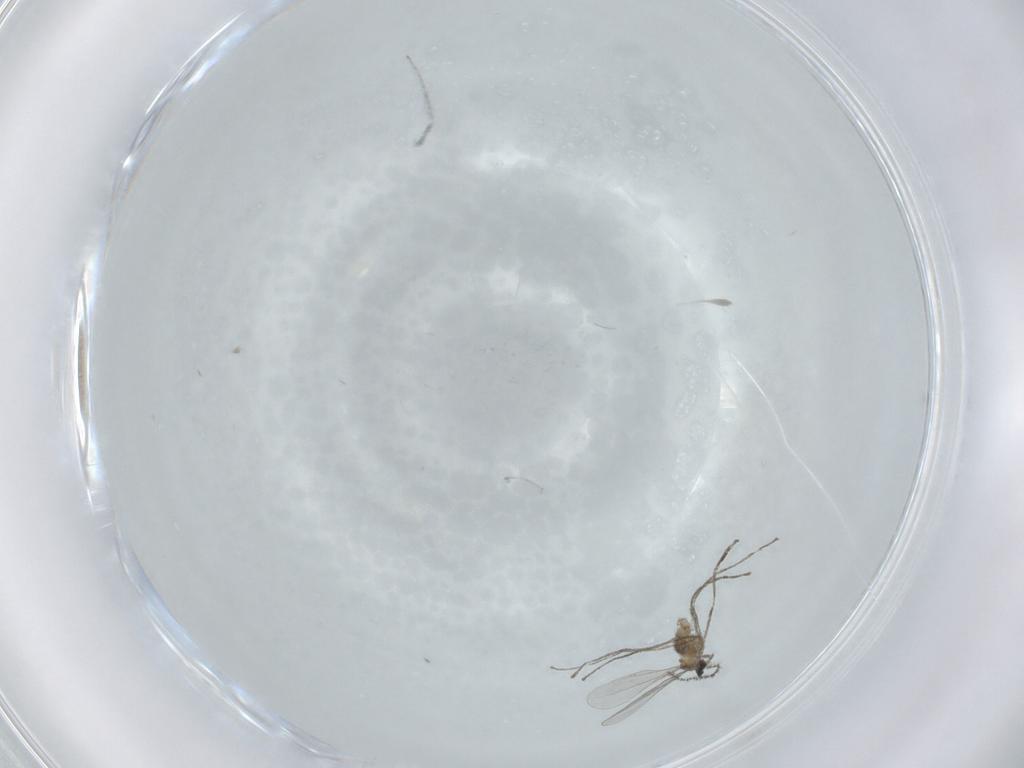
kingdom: Animalia
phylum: Arthropoda
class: Insecta
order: Diptera
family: Cecidomyiidae
